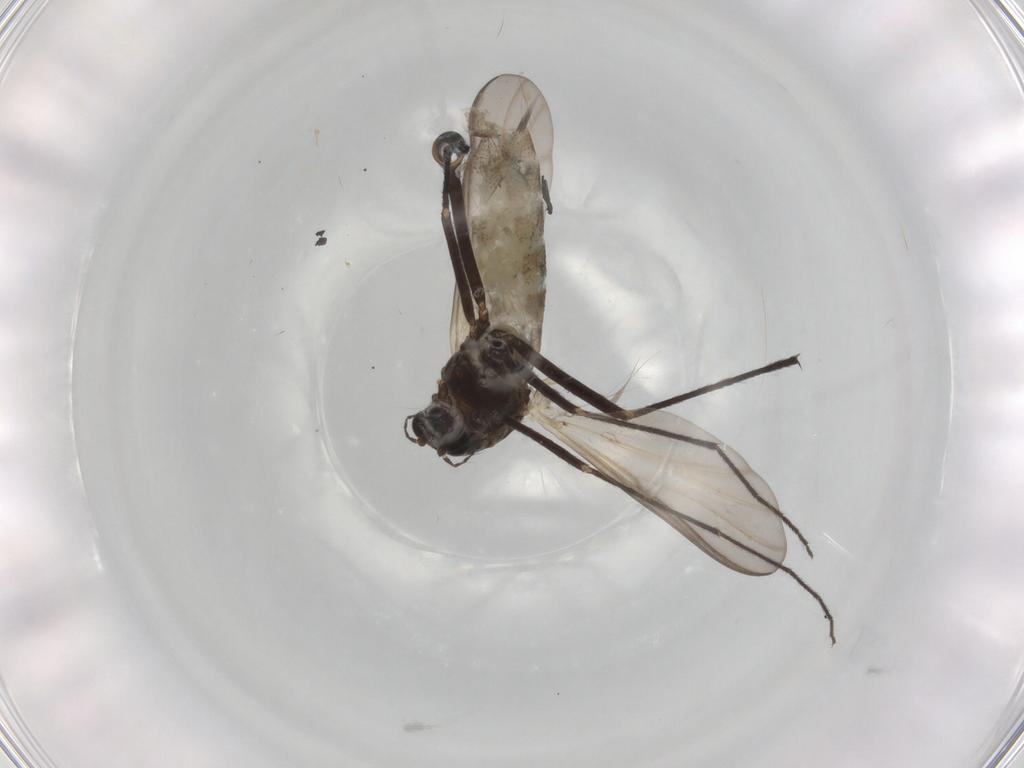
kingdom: Animalia
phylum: Arthropoda
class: Insecta
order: Diptera
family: Chironomidae
